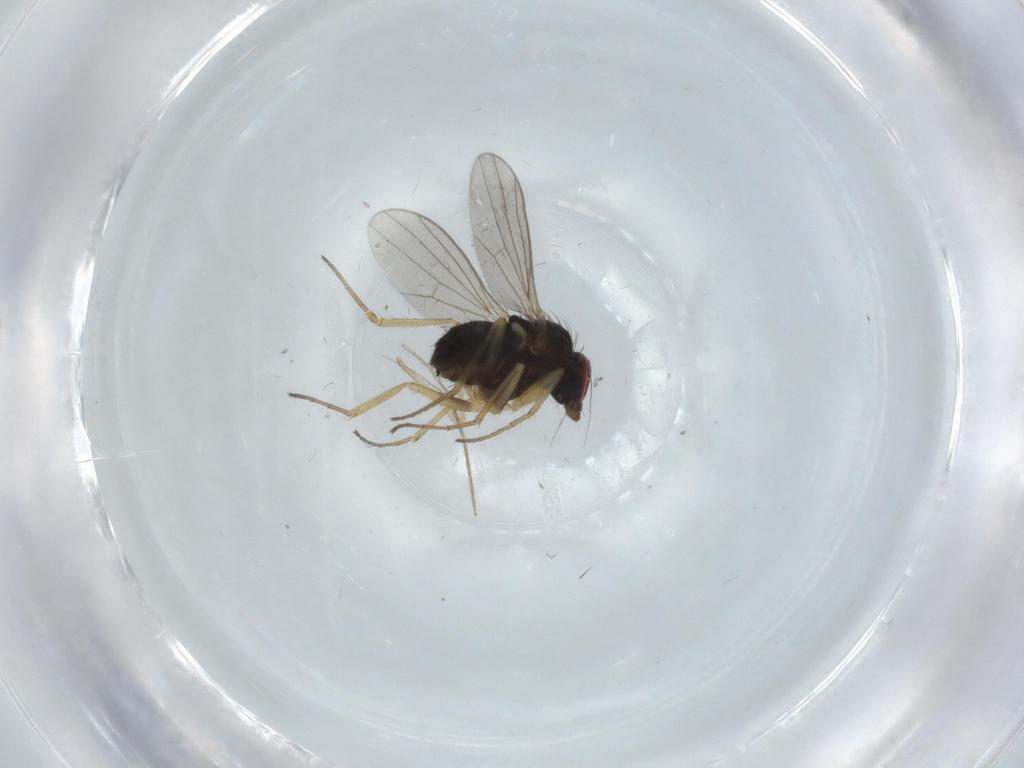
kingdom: Animalia
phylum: Arthropoda
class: Insecta
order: Diptera
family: Dolichopodidae
